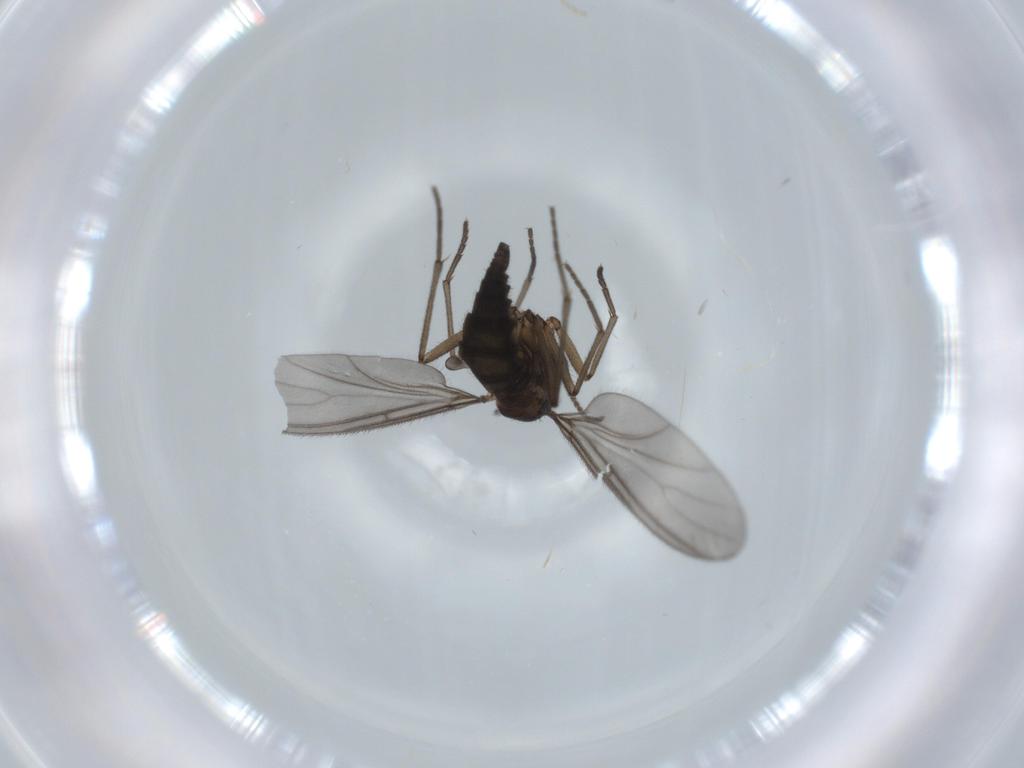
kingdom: Animalia
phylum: Arthropoda
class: Insecta
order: Diptera
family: Sciaridae
